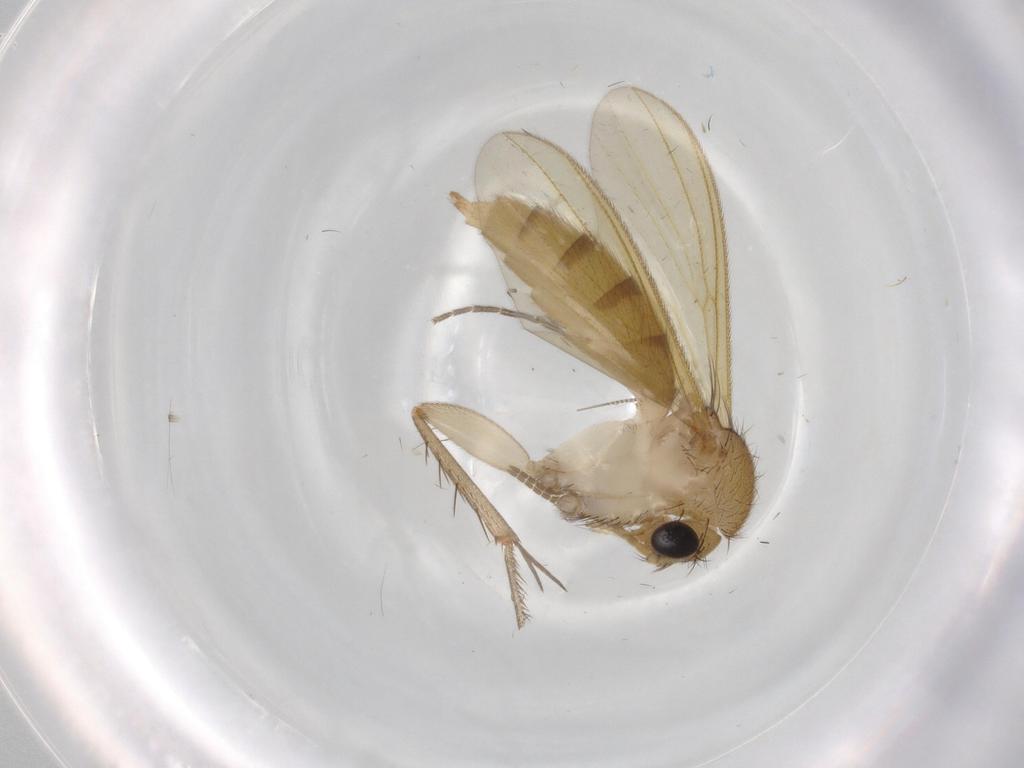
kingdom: Animalia
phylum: Arthropoda
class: Insecta
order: Diptera
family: Mycetophilidae
